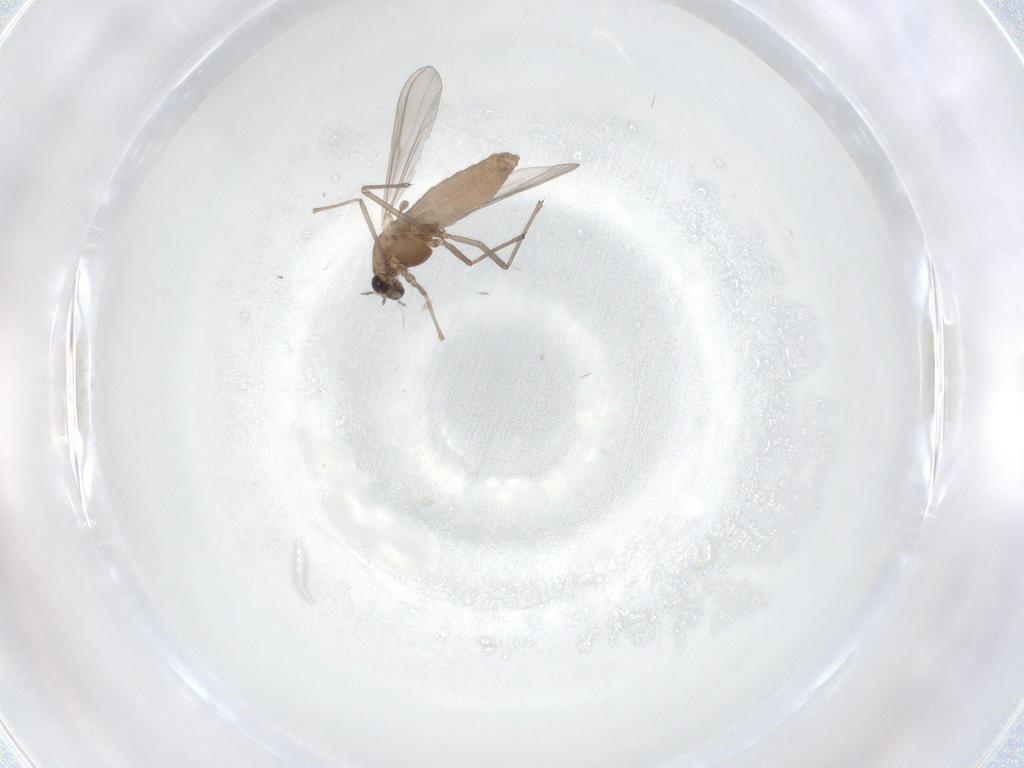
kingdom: Animalia
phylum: Arthropoda
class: Insecta
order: Diptera
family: Chironomidae
